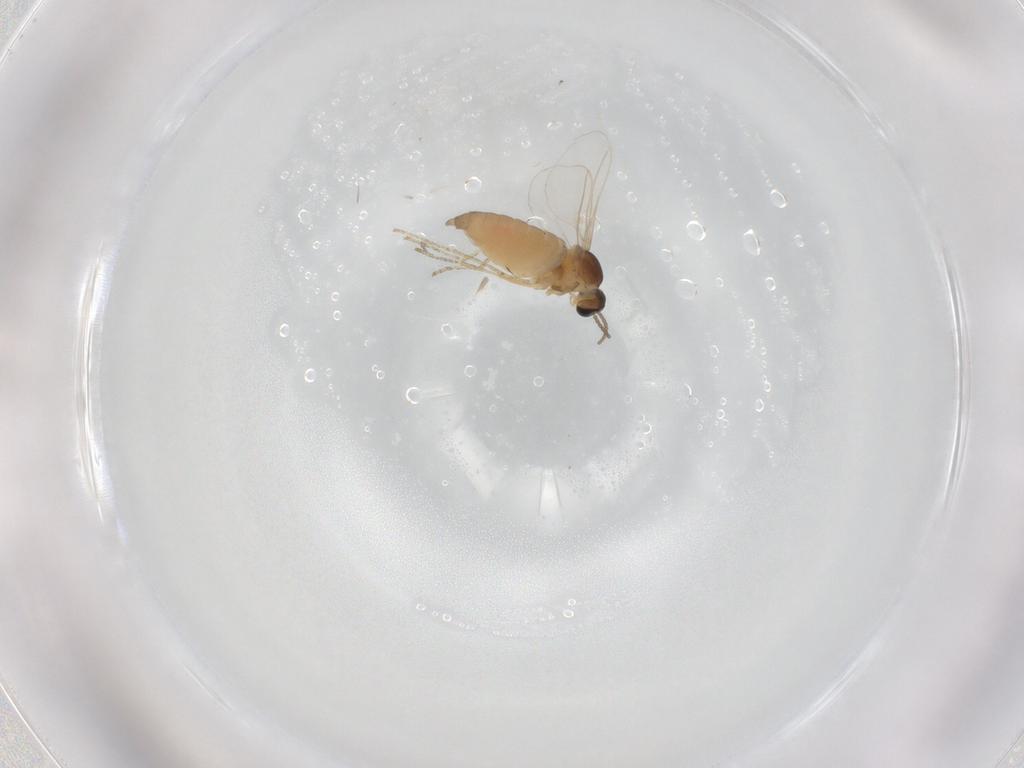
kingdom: Animalia
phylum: Arthropoda
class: Insecta
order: Diptera
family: Cecidomyiidae
